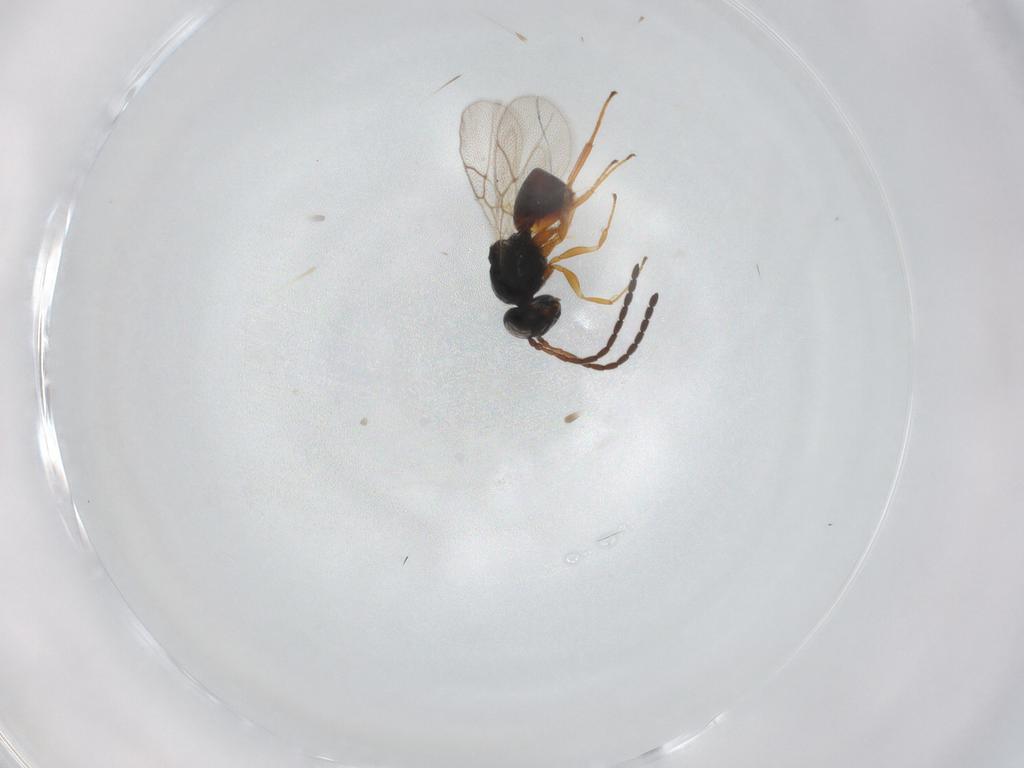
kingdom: Animalia
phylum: Arthropoda
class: Insecta
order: Hymenoptera
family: Figitidae
